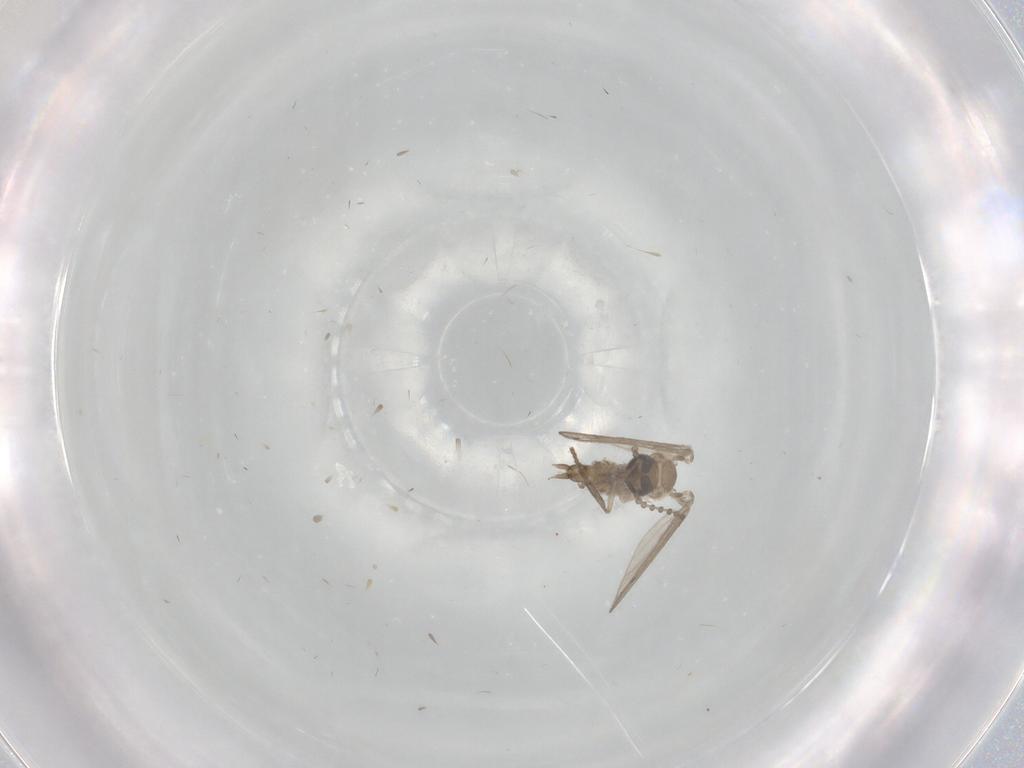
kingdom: Animalia
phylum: Arthropoda
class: Insecta
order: Diptera
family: Psychodidae
